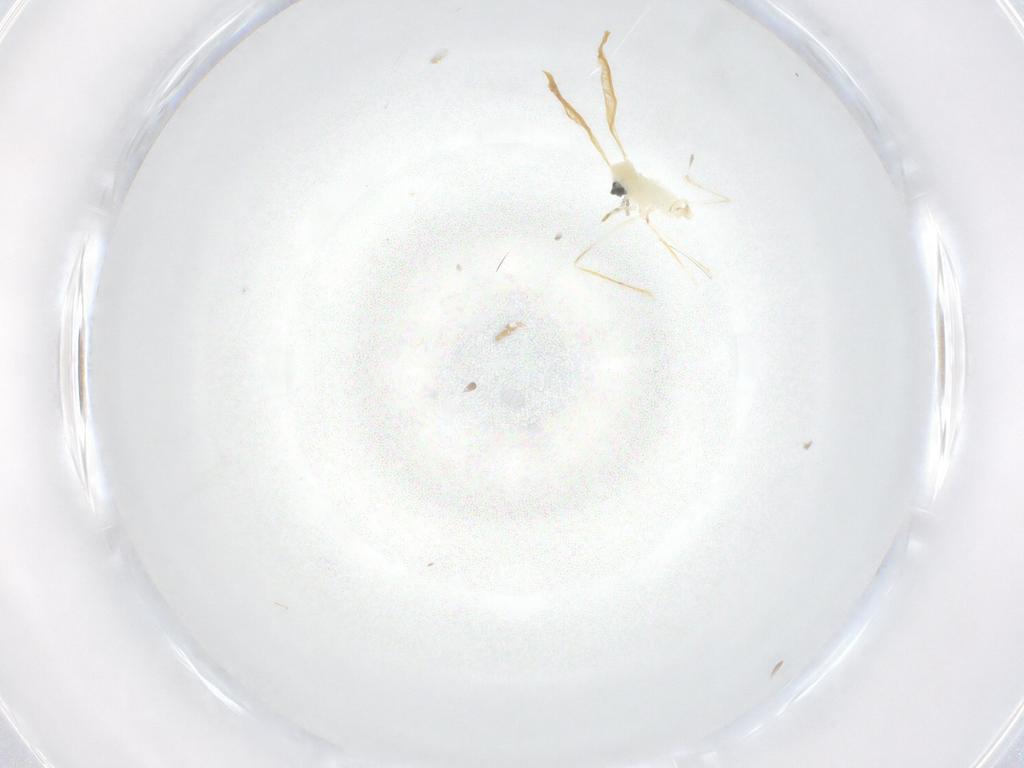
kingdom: Animalia
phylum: Arthropoda
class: Insecta
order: Diptera
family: Cecidomyiidae
